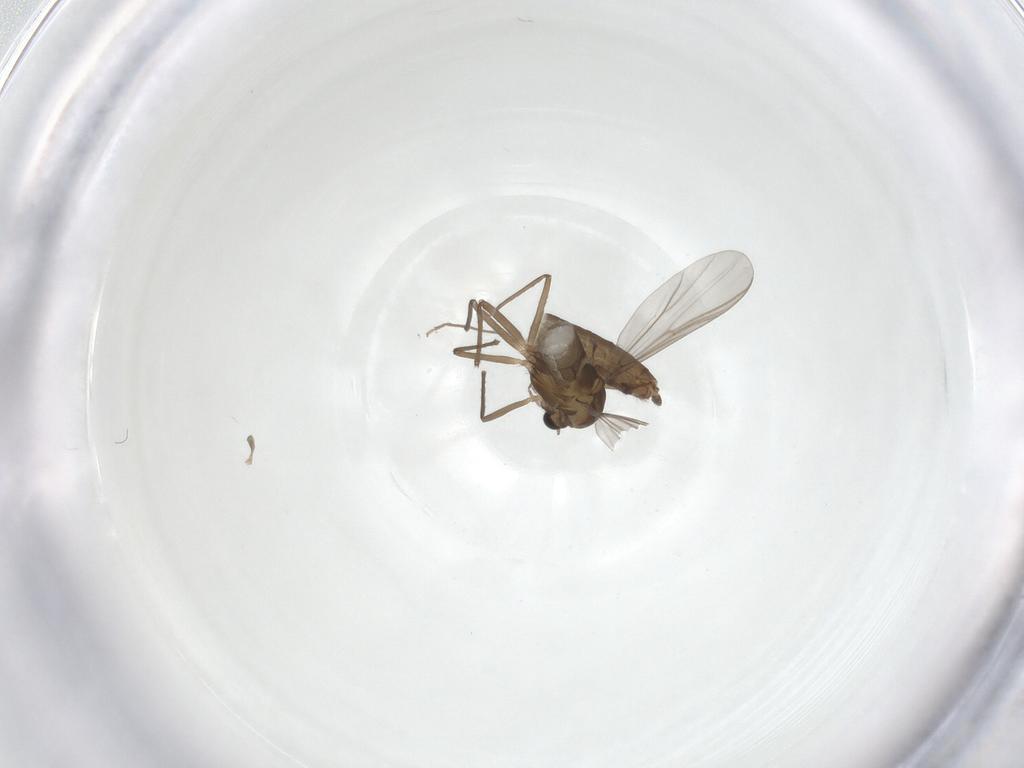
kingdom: Animalia
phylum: Arthropoda
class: Insecta
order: Diptera
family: Chironomidae
